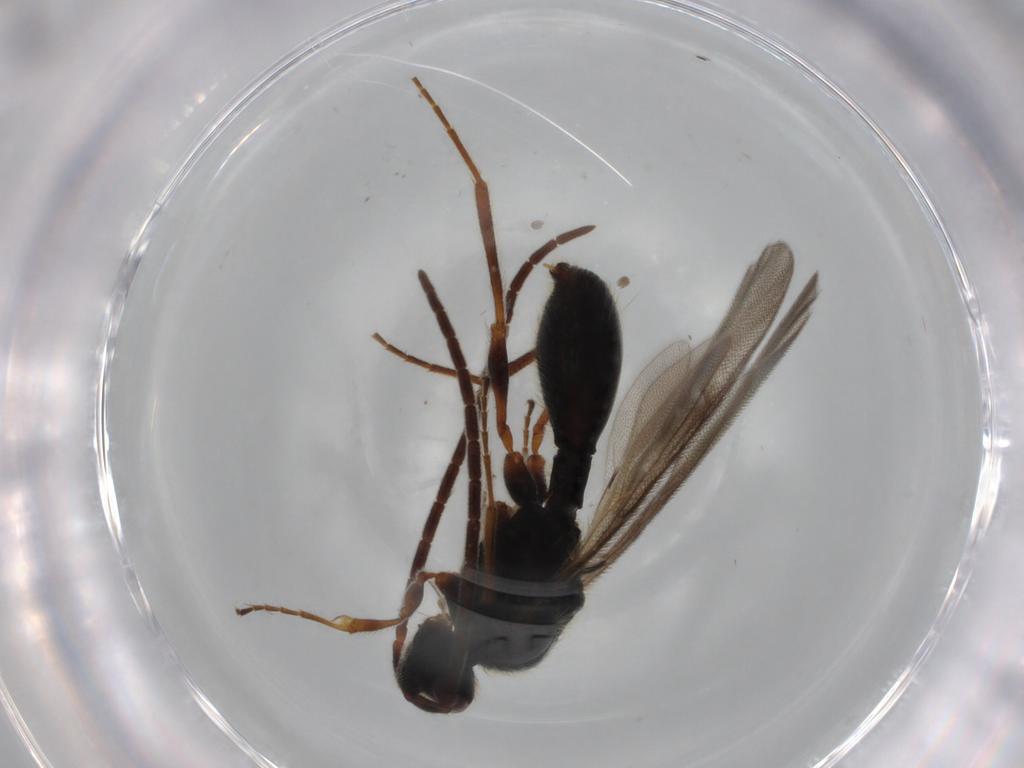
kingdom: Animalia
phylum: Arthropoda
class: Insecta
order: Hymenoptera
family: Diapriidae
